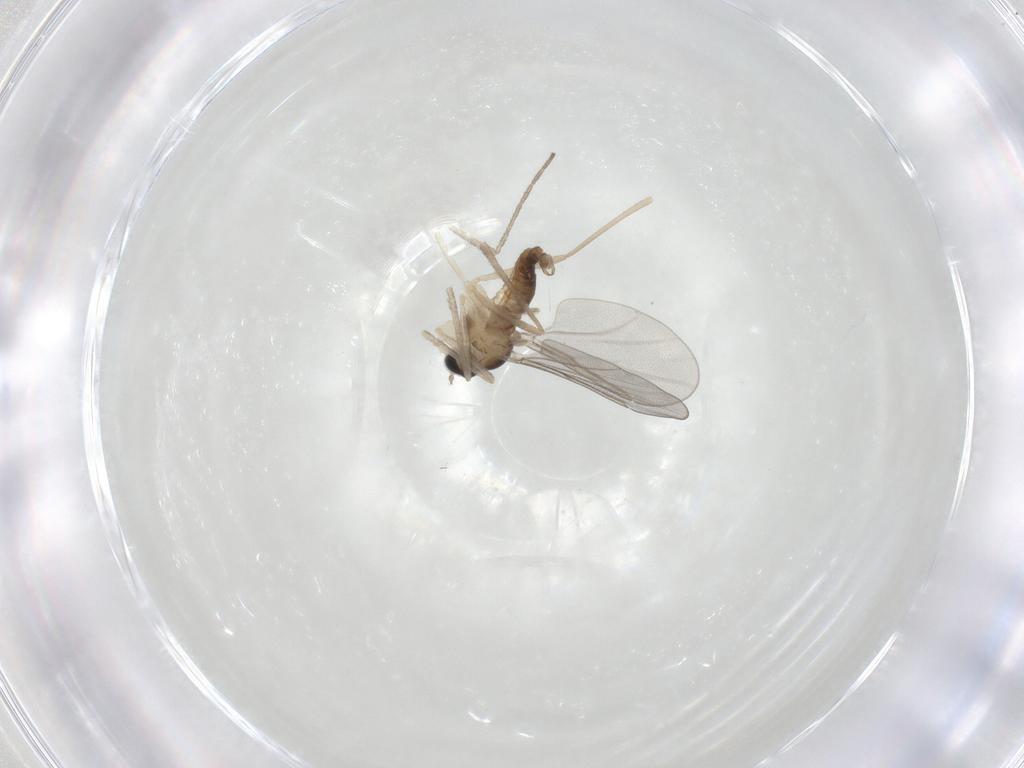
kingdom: Animalia
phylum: Arthropoda
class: Insecta
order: Diptera
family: Cecidomyiidae
